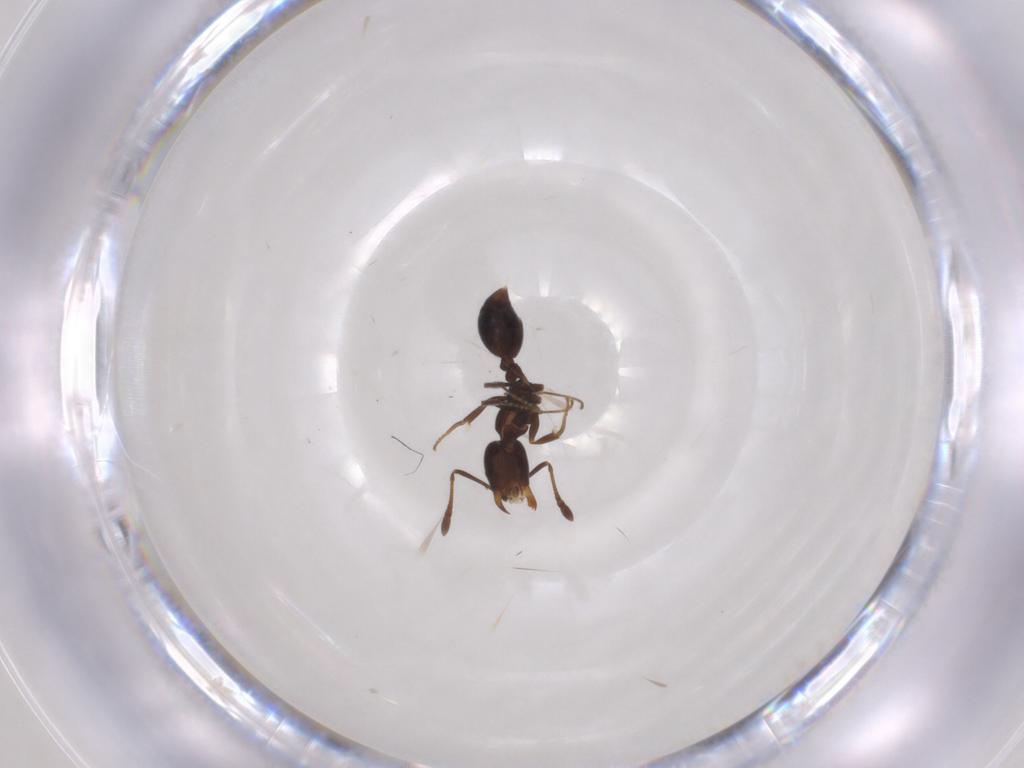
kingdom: Animalia
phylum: Arthropoda
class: Insecta
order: Hymenoptera
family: Formicidae
